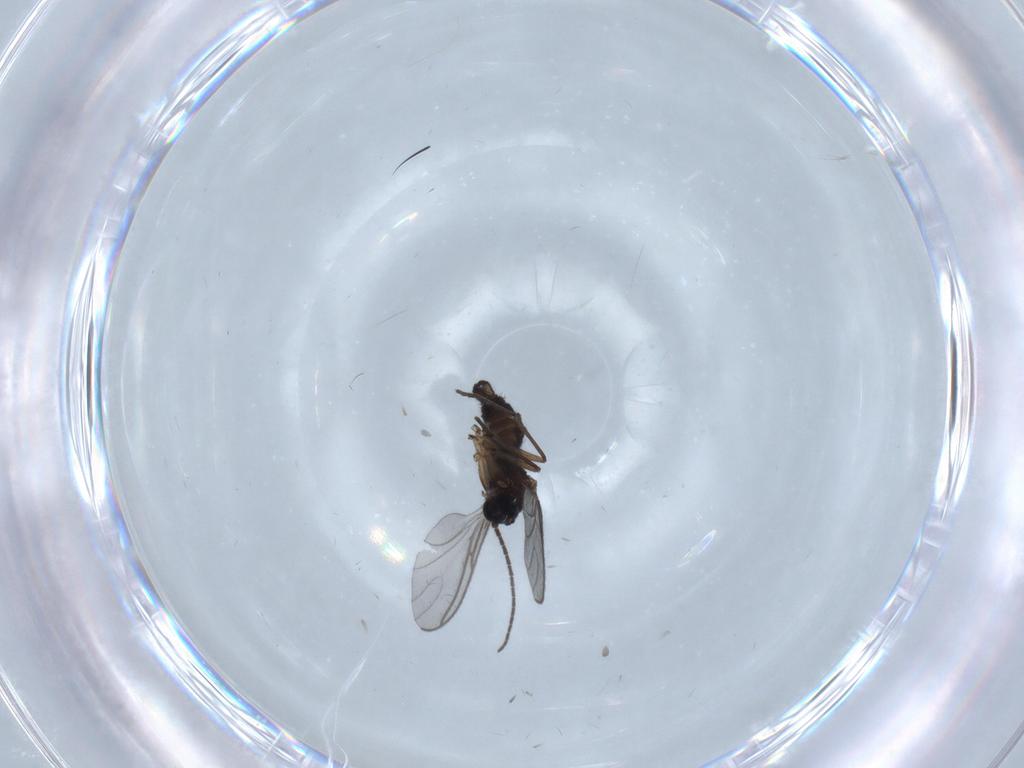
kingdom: Animalia
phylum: Arthropoda
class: Insecta
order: Diptera
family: Sciaridae
